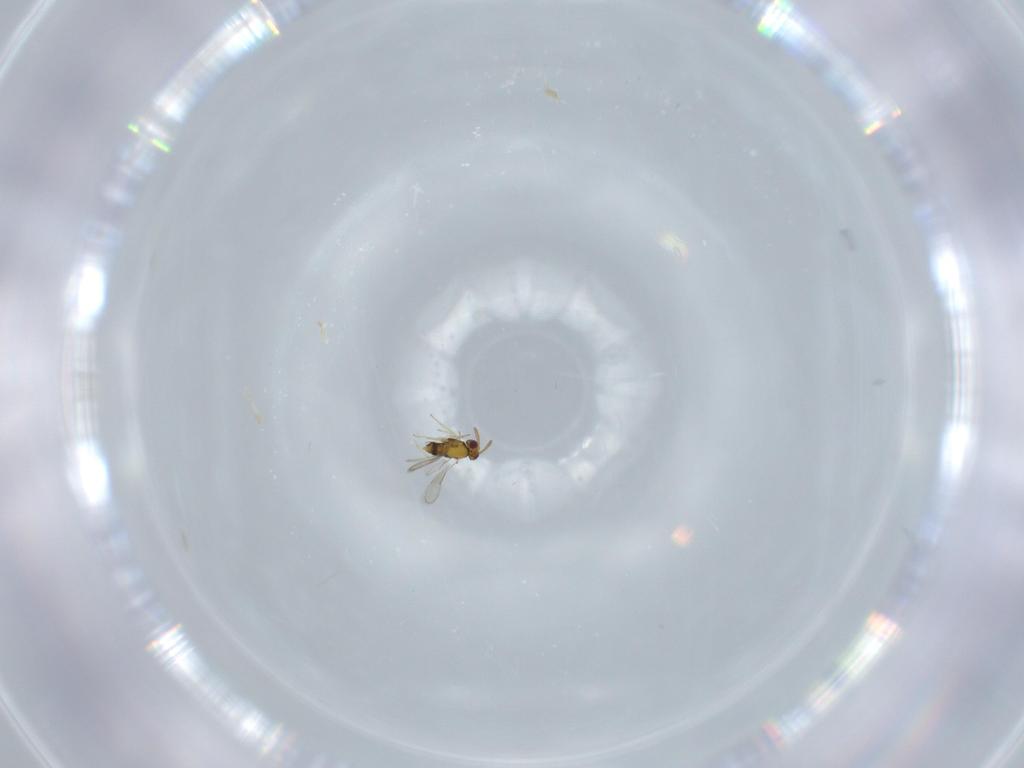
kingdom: Animalia
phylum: Arthropoda
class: Insecta
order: Hymenoptera
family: Aphelinidae
